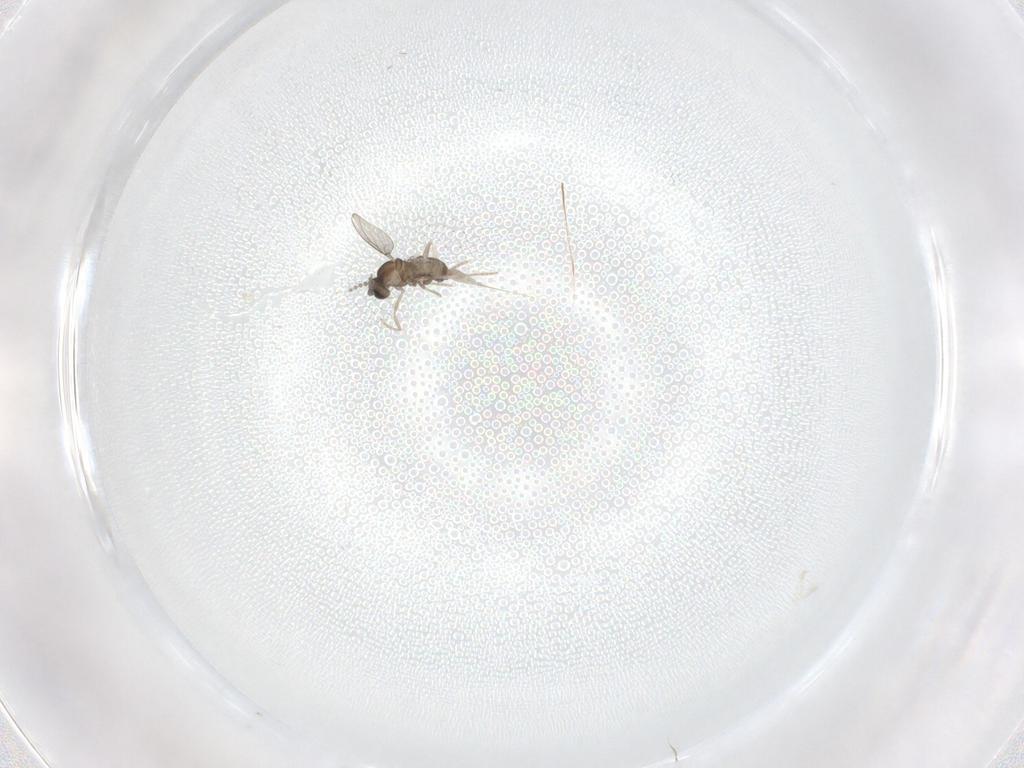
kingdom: Animalia
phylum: Arthropoda
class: Insecta
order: Diptera
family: Cecidomyiidae
